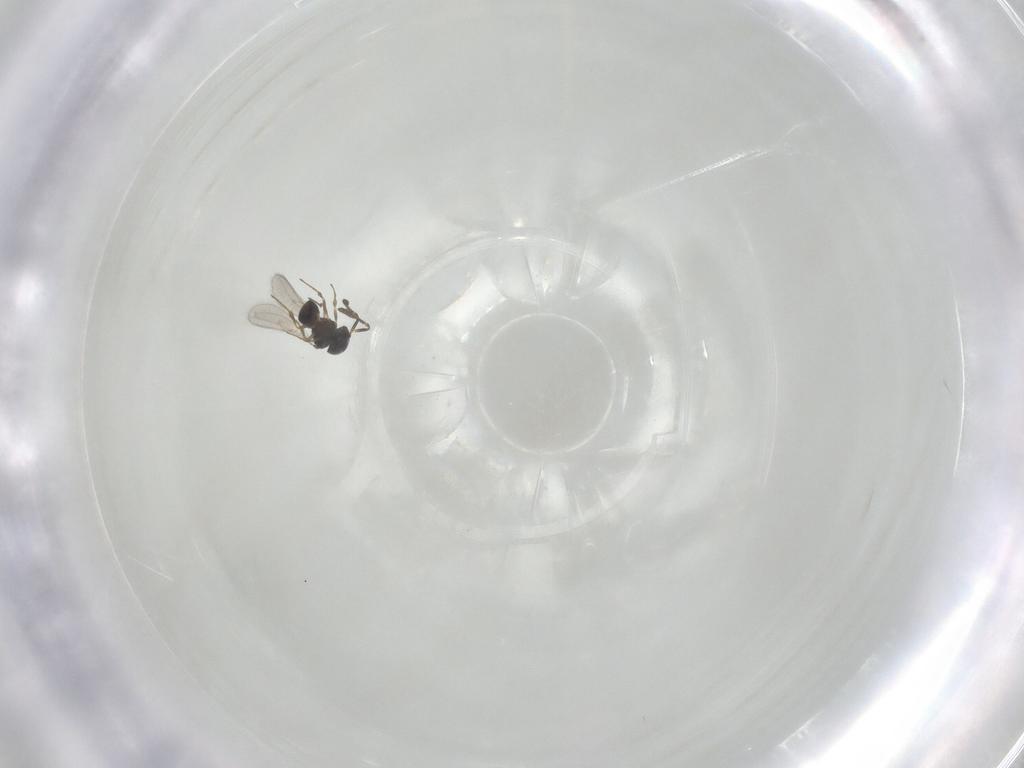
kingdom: Animalia
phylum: Arthropoda
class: Insecta
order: Hymenoptera
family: Scelionidae
